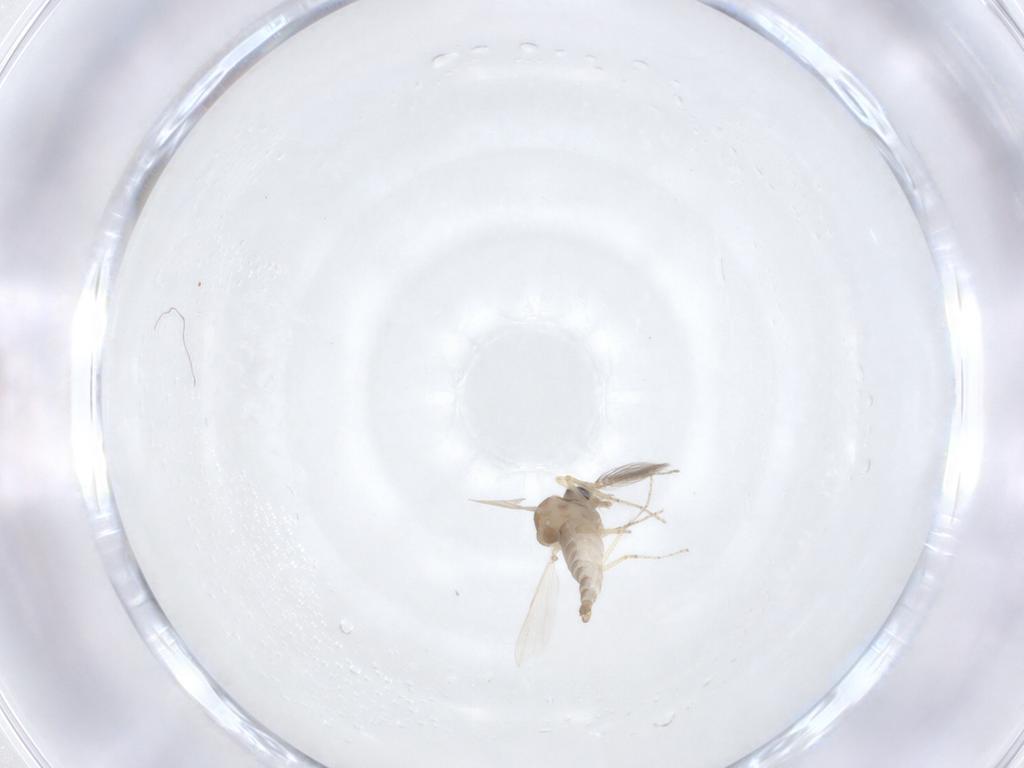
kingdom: Animalia
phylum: Arthropoda
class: Insecta
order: Diptera
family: Ceratopogonidae
